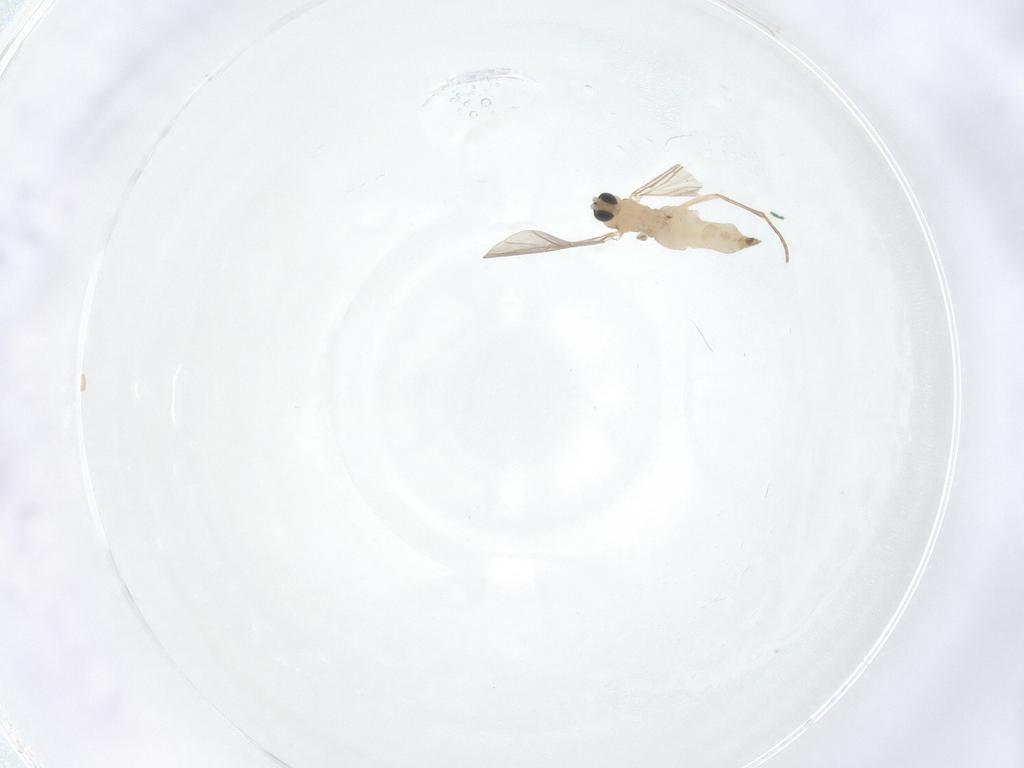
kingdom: Animalia
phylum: Arthropoda
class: Insecta
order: Diptera
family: Sciaridae
